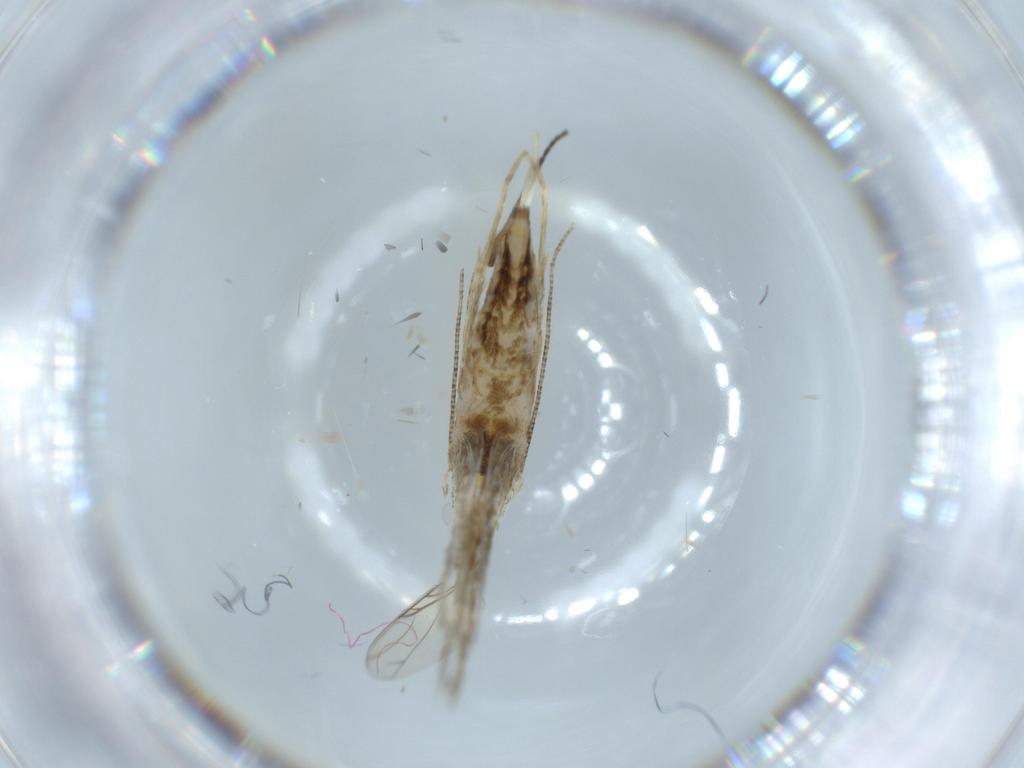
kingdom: Animalia
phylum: Arthropoda
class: Insecta
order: Lepidoptera
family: Tineidae
